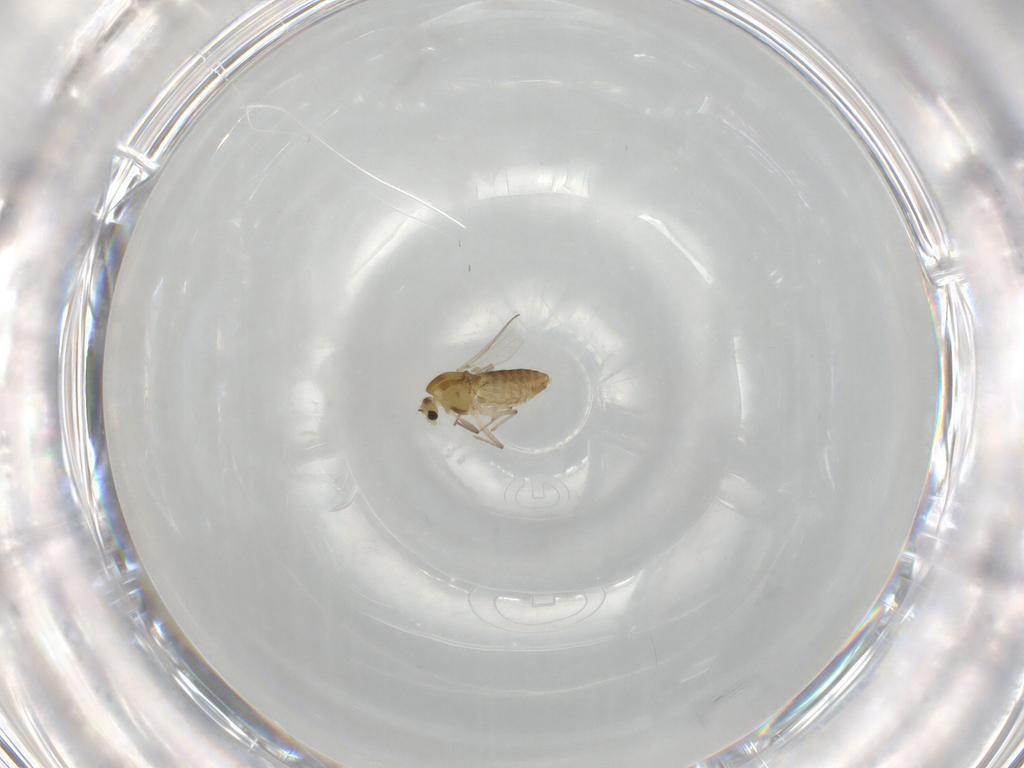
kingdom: Animalia
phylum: Arthropoda
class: Insecta
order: Diptera
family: Chironomidae
